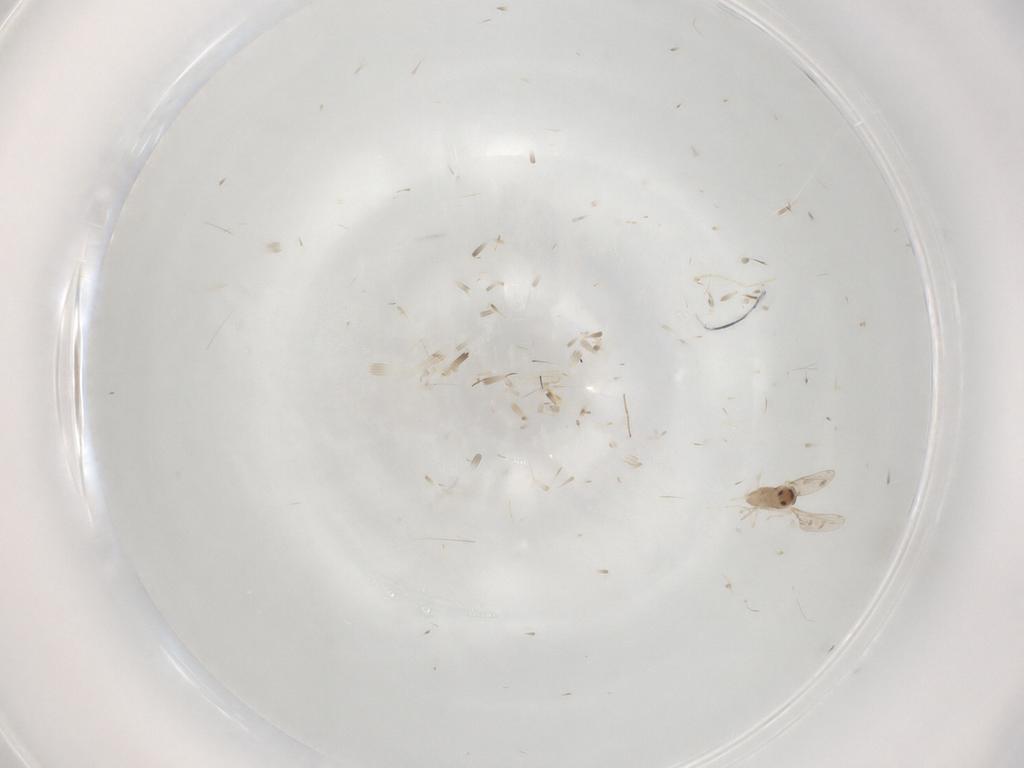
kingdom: Animalia
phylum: Arthropoda
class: Insecta
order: Diptera
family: Cecidomyiidae
